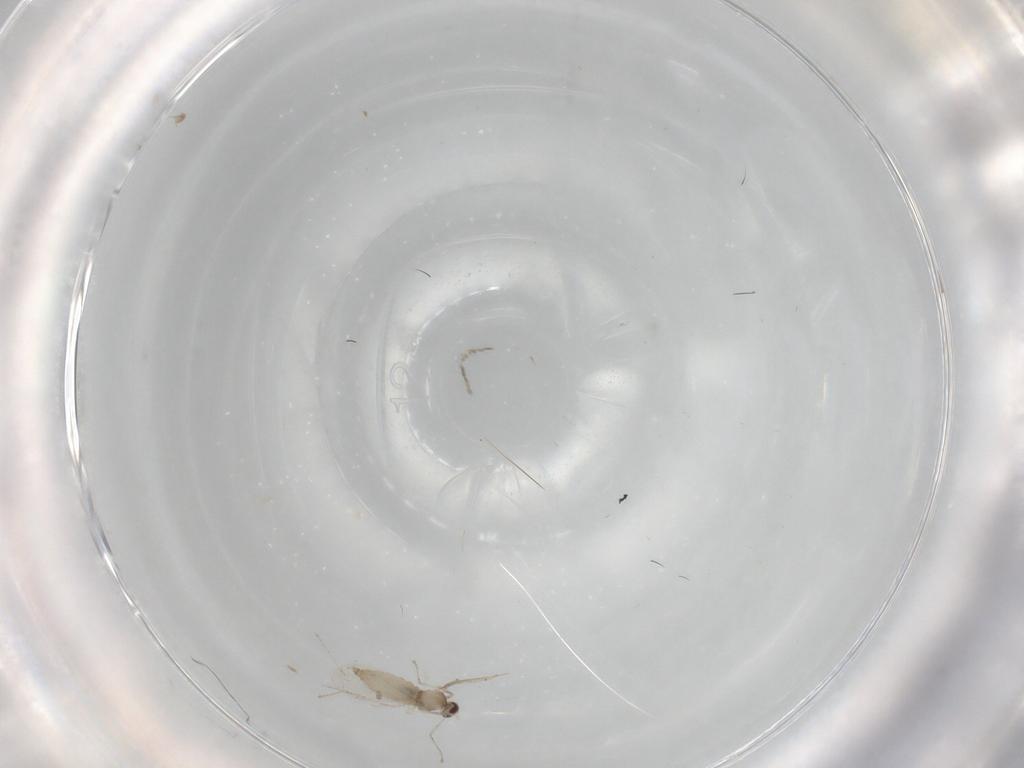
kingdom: Animalia
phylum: Arthropoda
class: Insecta
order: Diptera
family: Cecidomyiidae
